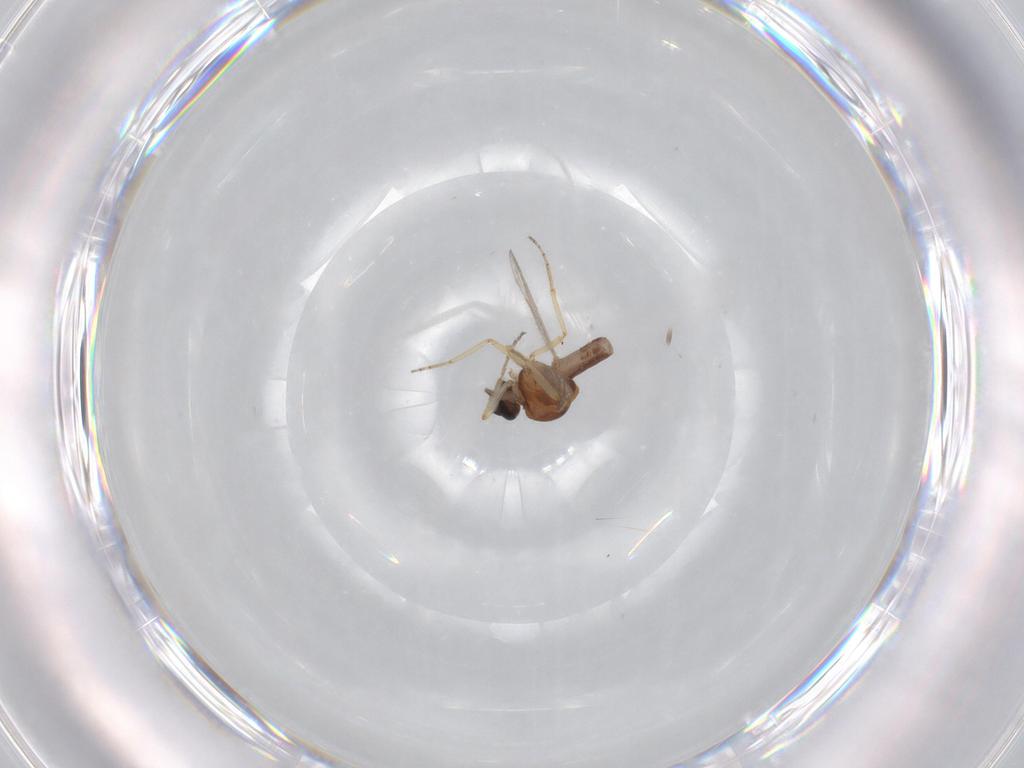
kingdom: Animalia
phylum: Arthropoda
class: Insecta
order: Diptera
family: Ceratopogonidae
